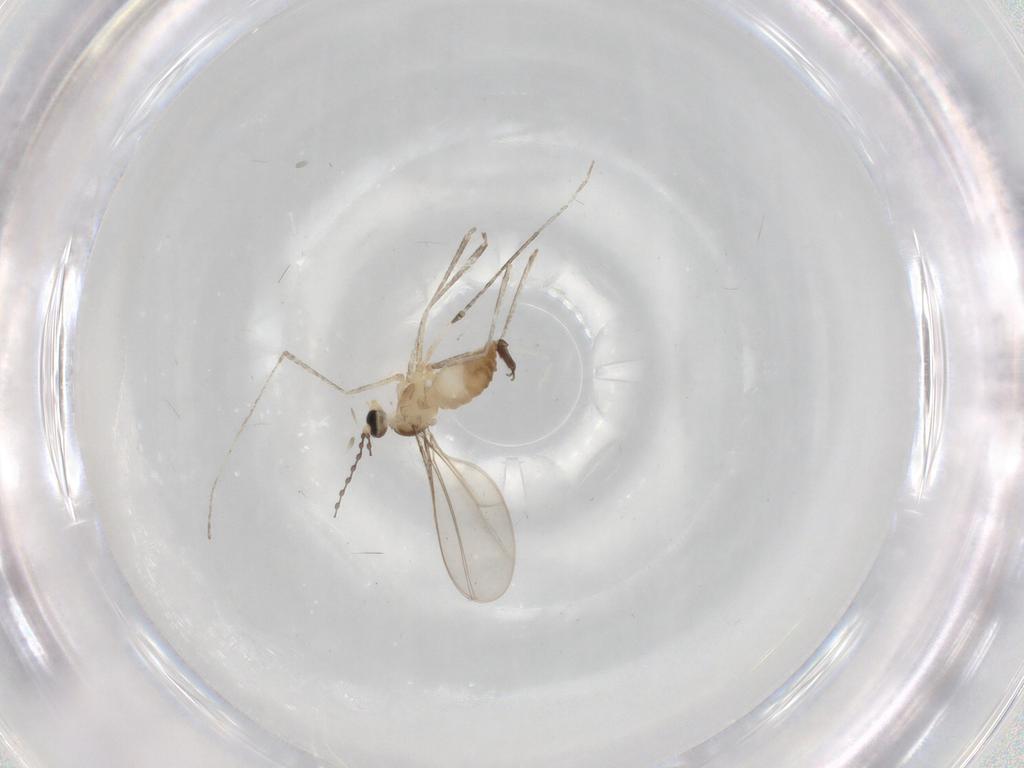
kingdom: Animalia
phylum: Arthropoda
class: Insecta
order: Diptera
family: Cecidomyiidae
